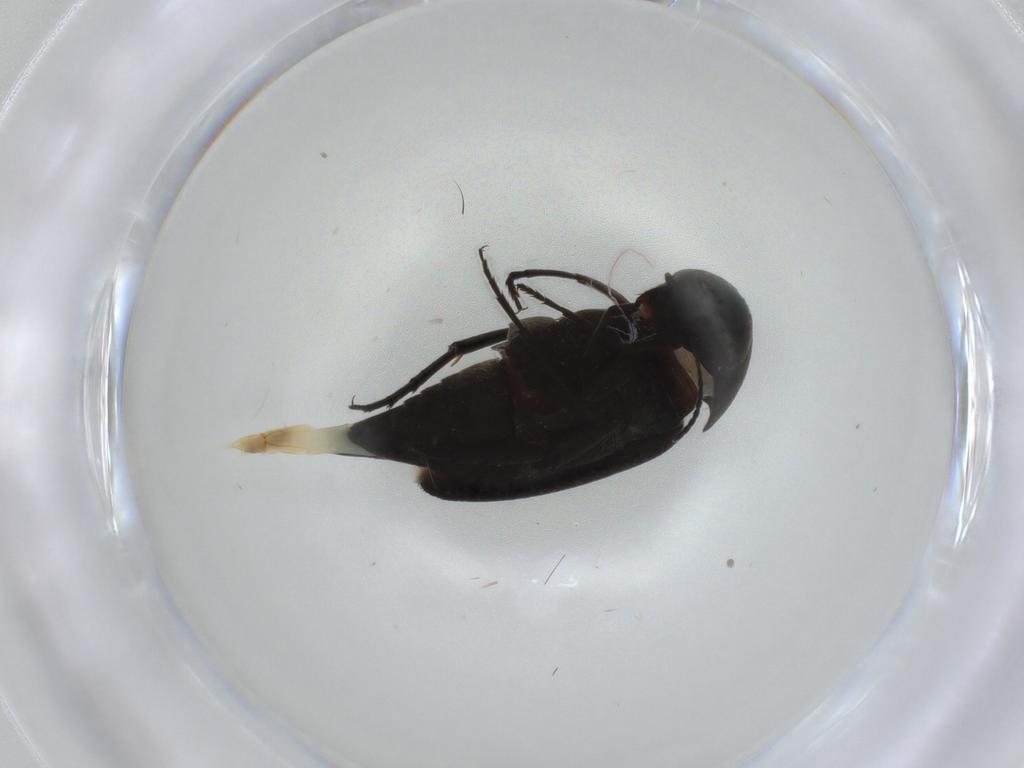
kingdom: Animalia
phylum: Arthropoda
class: Insecta
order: Coleoptera
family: Mordellidae
